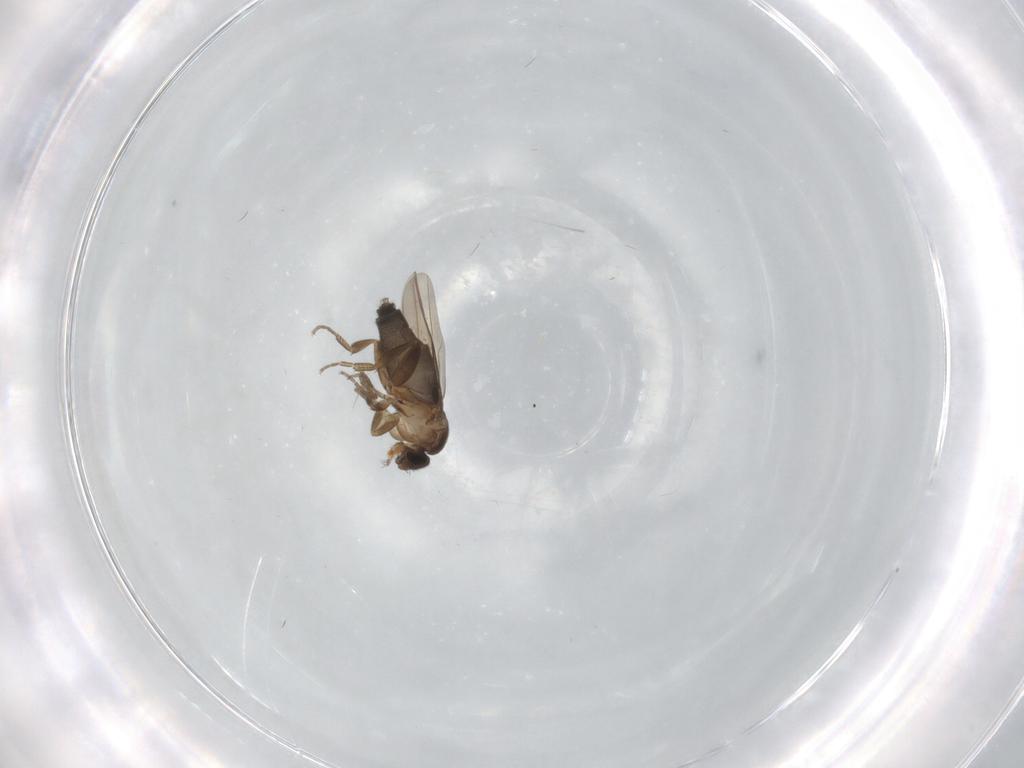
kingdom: Animalia
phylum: Arthropoda
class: Insecta
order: Diptera
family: Phoridae
